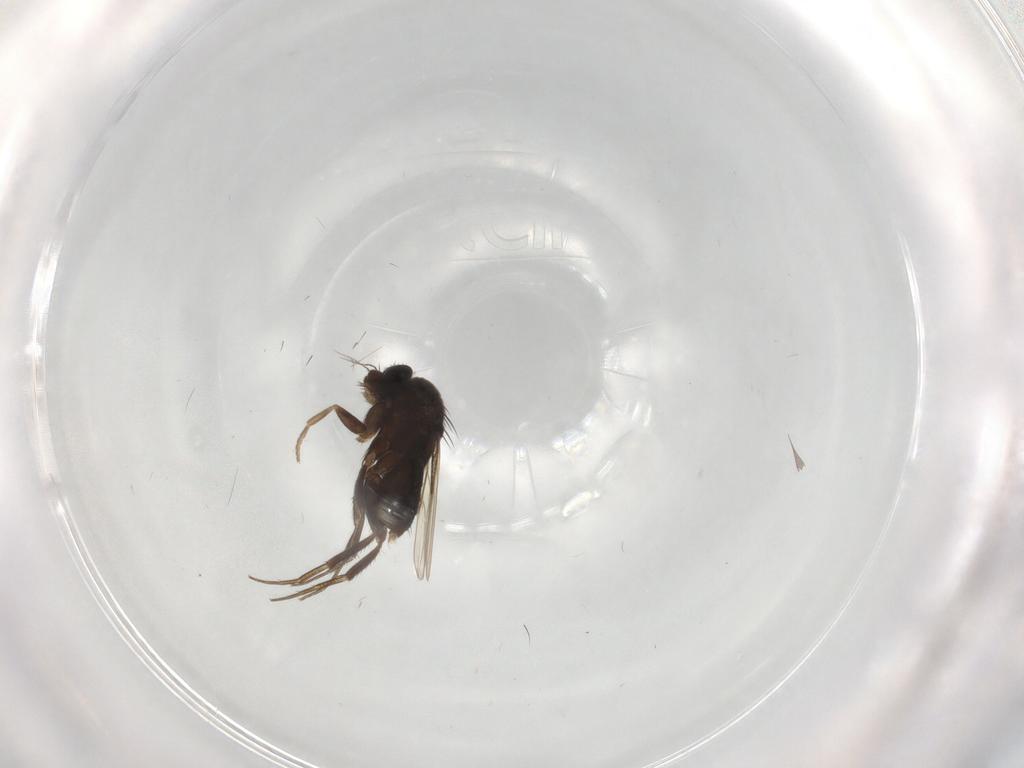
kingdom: Animalia
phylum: Arthropoda
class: Insecta
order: Diptera
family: Phoridae
